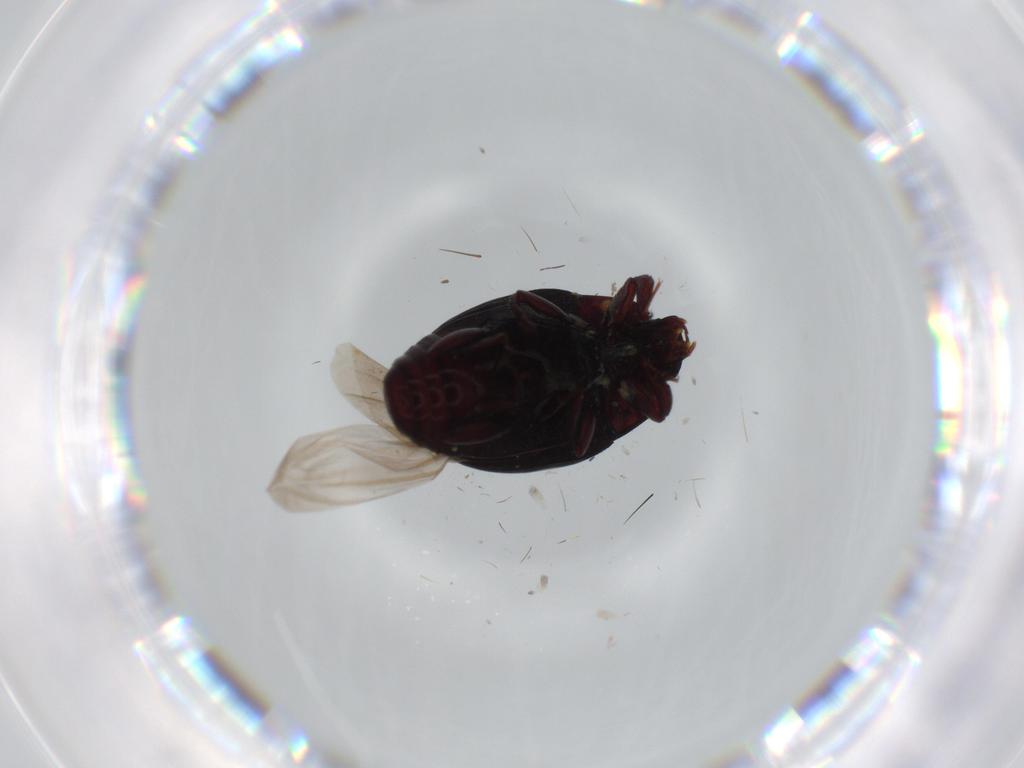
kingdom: Animalia
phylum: Arthropoda
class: Insecta
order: Coleoptera
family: Histeridae
